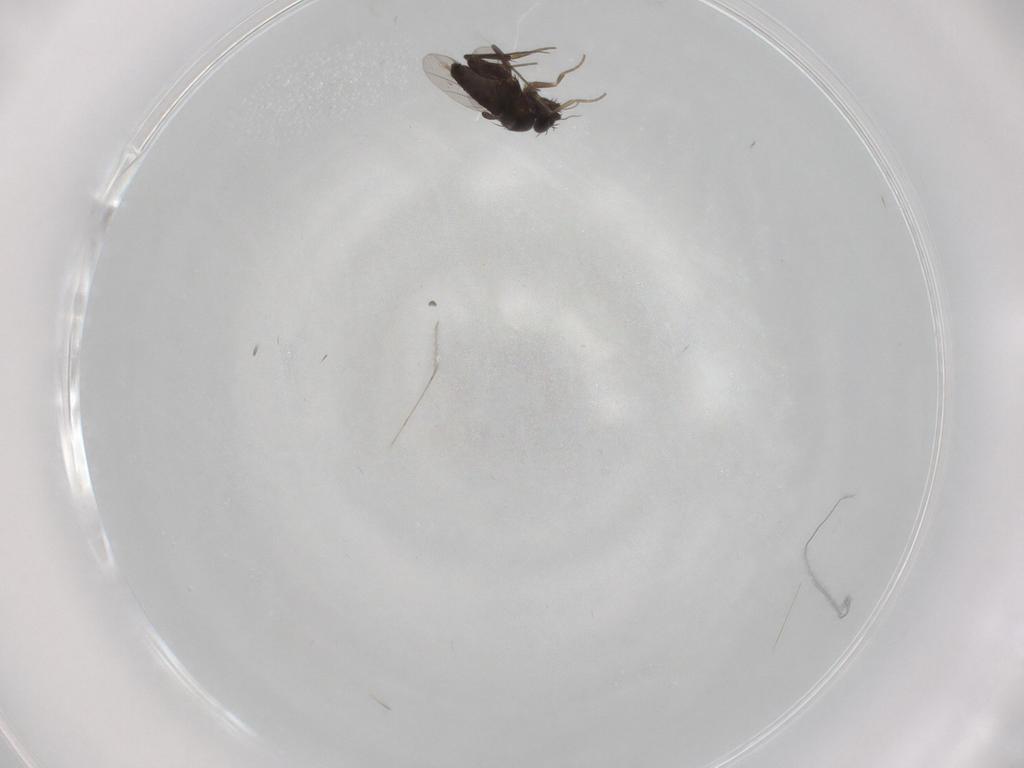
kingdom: Animalia
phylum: Arthropoda
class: Insecta
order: Diptera
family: Phoridae
